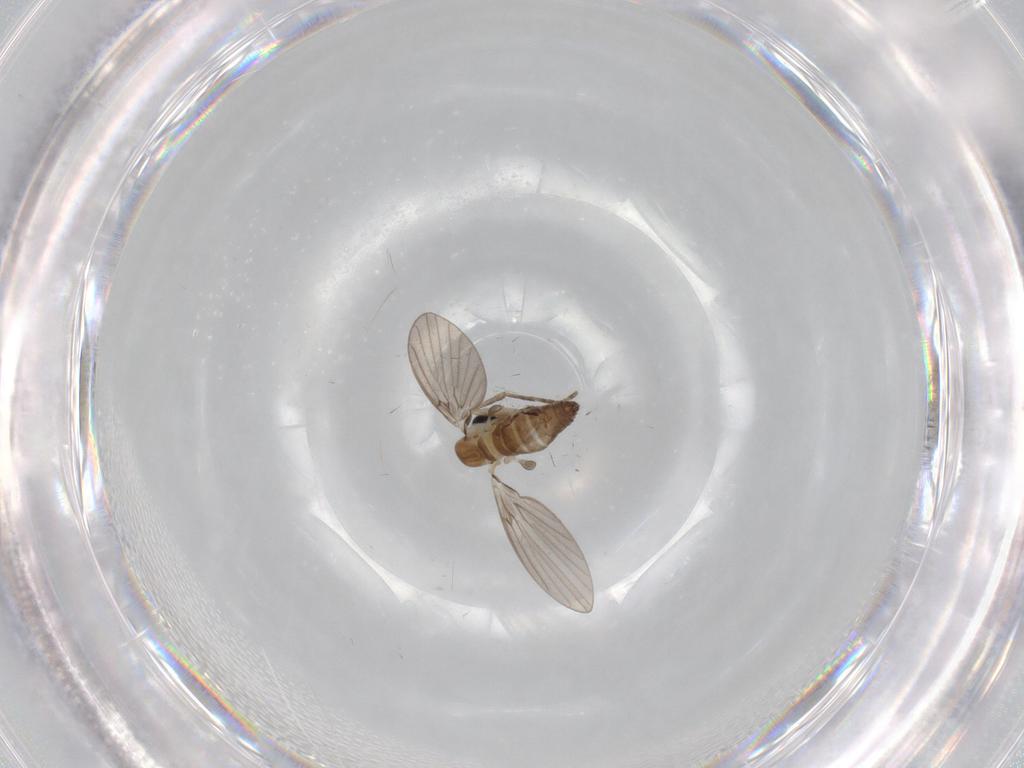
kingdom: Animalia
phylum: Arthropoda
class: Insecta
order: Diptera
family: Cecidomyiidae
